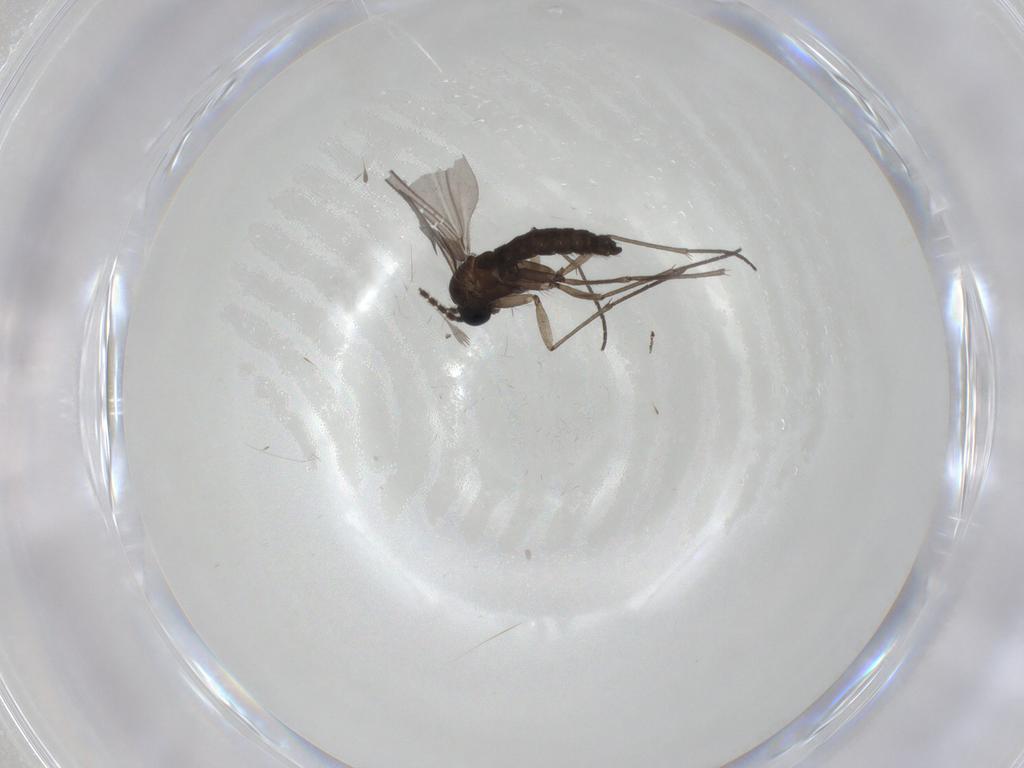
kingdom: Animalia
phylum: Arthropoda
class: Insecta
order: Diptera
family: Sciaridae
